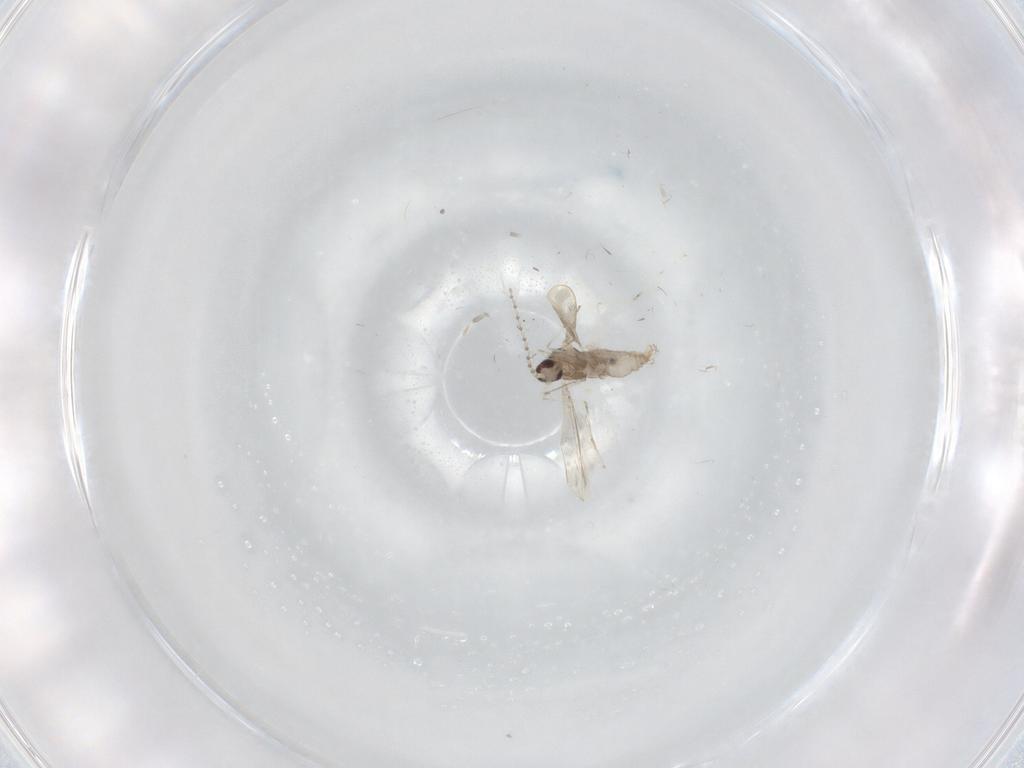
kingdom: Animalia
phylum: Arthropoda
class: Insecta
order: Diptera
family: Cecidomyiidae
